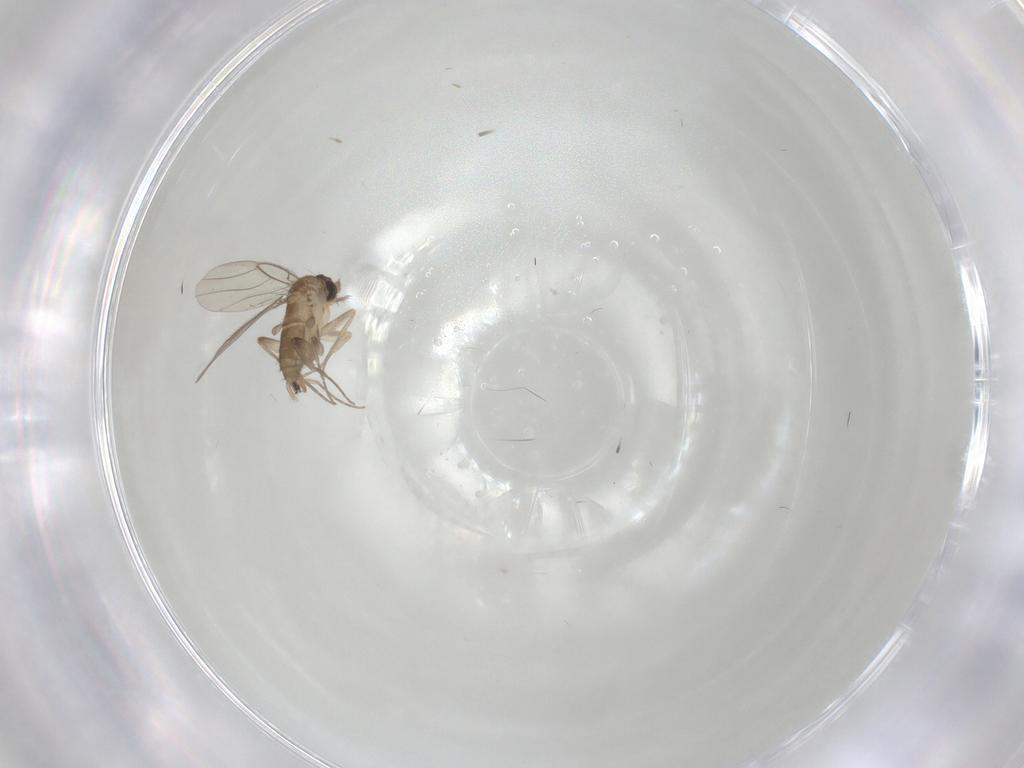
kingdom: Animalia
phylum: Arthropoda
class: Insecta
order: Diptera
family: Phoridae
